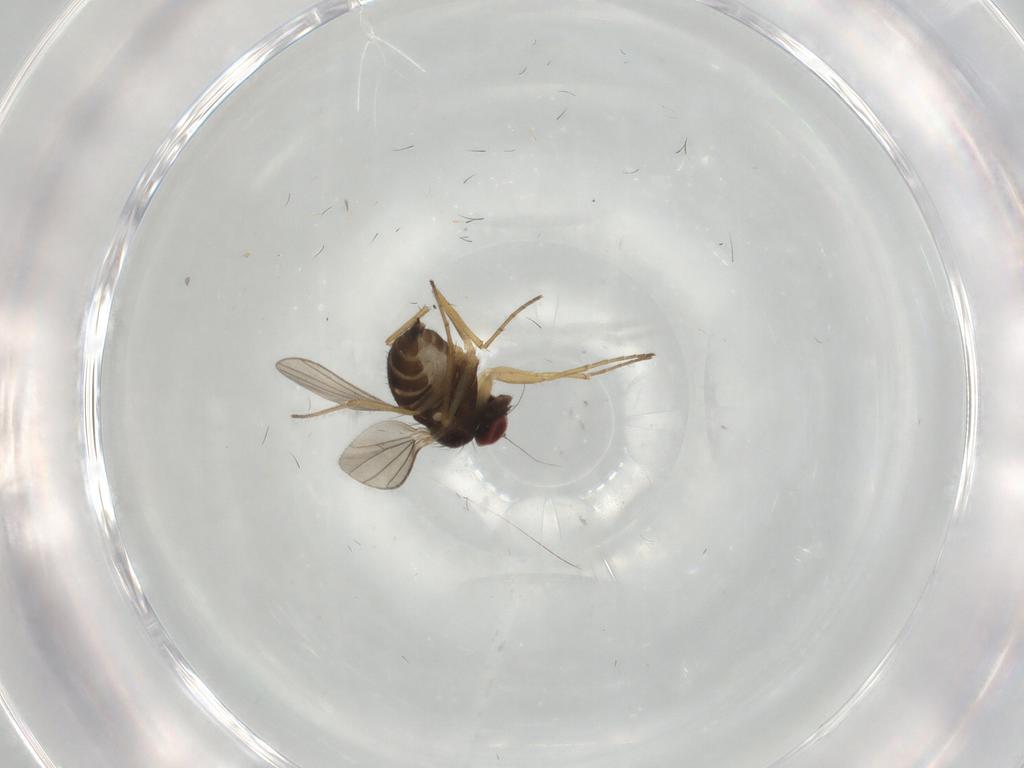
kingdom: Animalia
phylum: Arthropoda
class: Insecta
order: Diptera
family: Dolichopodidae
